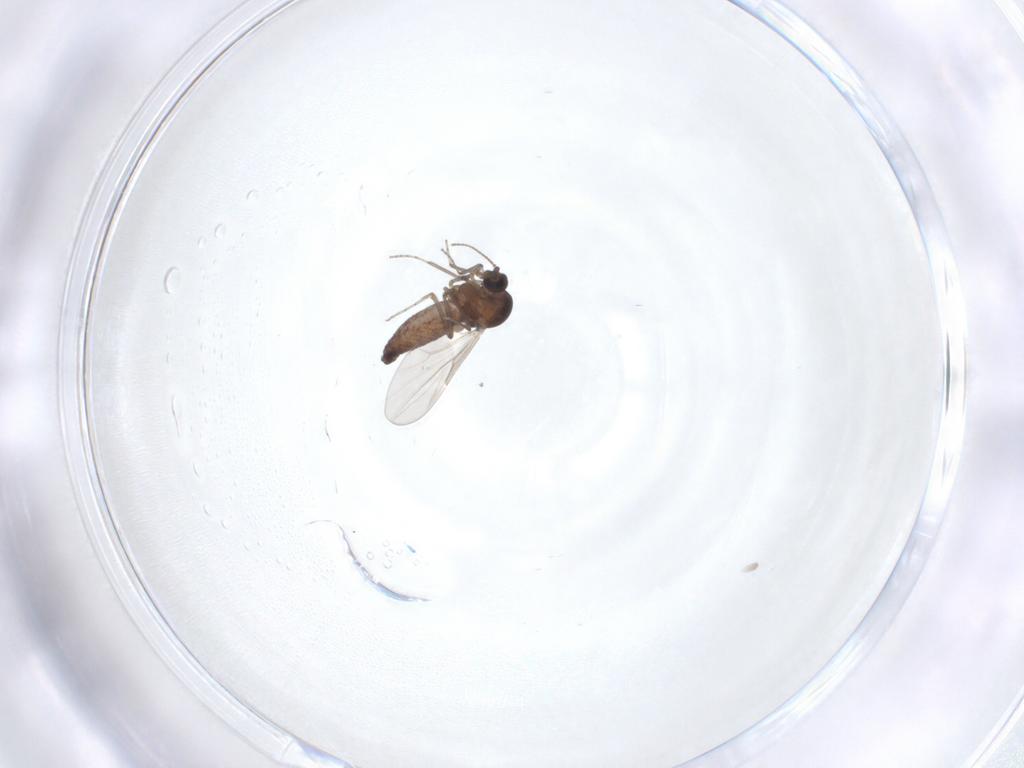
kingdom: Animalia
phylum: Arthropoda
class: Insecta
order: Diptera
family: Ceratopogonidae
